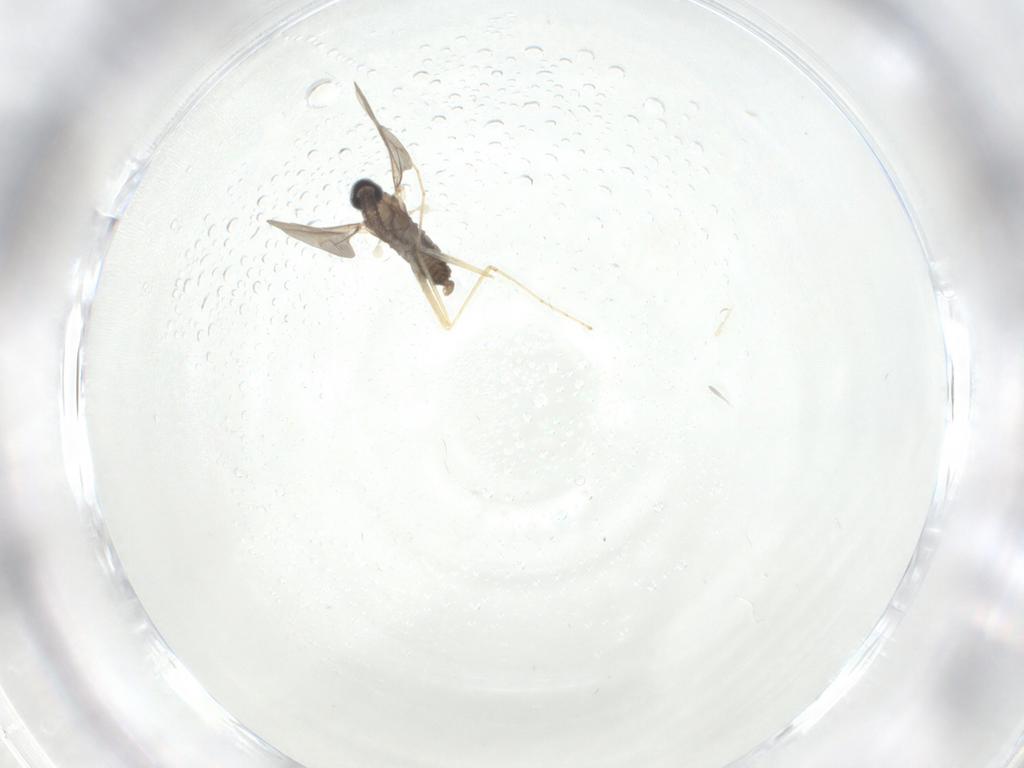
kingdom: Animalia
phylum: Arthropoda
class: Insecta
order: Diptera
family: Cecidomyiidae
